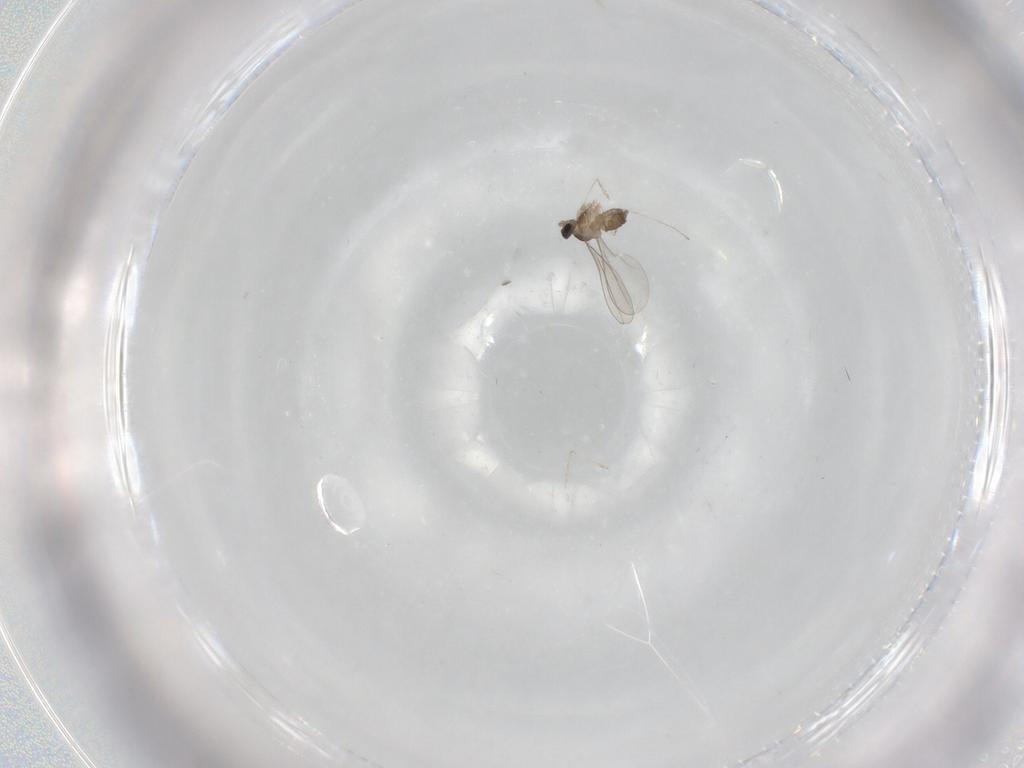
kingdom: Animalia
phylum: Arthropoda
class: Insecta
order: Diptera
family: Cecidomyiidae
